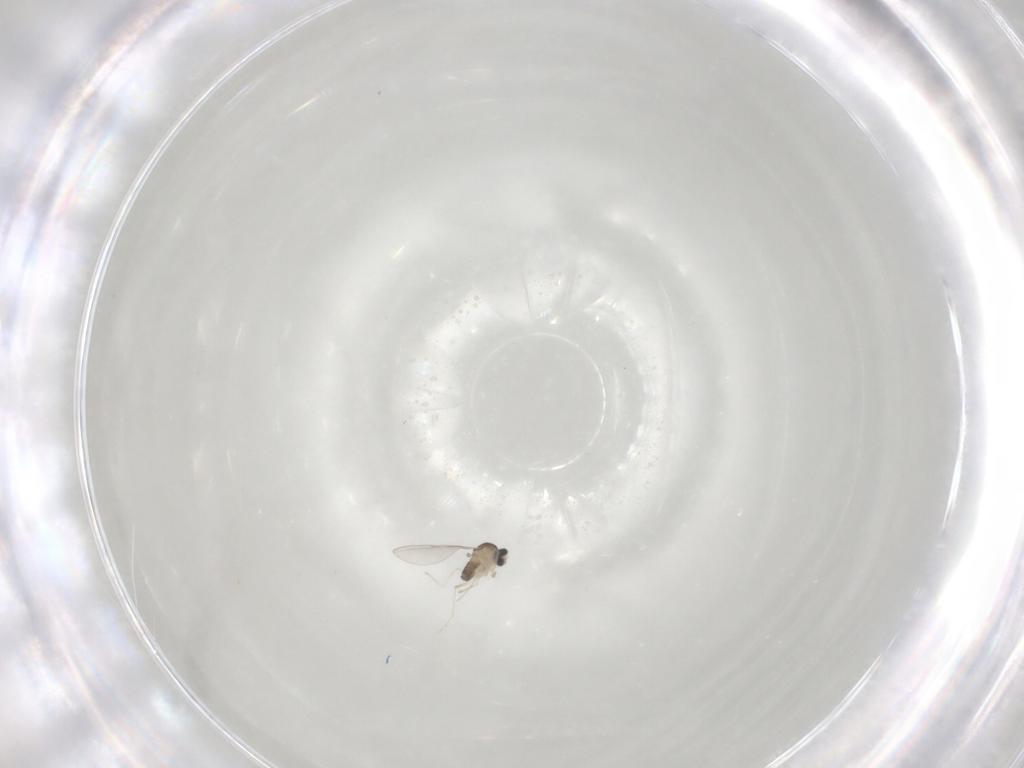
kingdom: Animalia
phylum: Arthropoda
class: Insecta
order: Diptera
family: Cecidomyiidae
